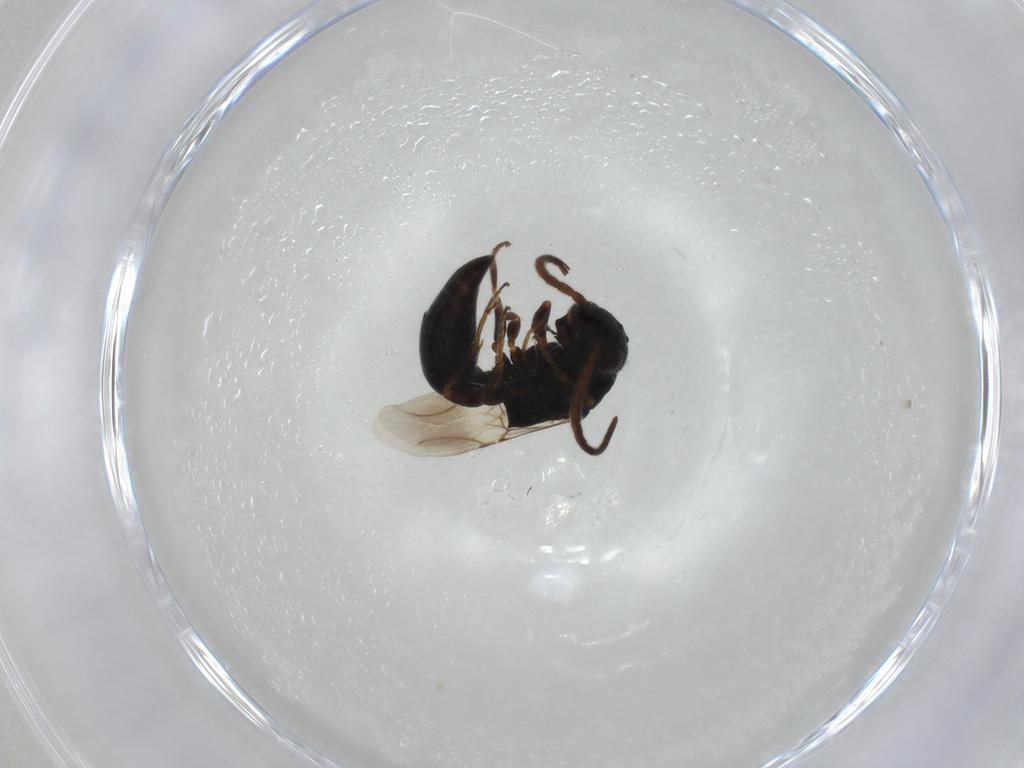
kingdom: Animalia
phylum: Arthropoda
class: Insecta
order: Hymenoptera
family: Bethylidae
